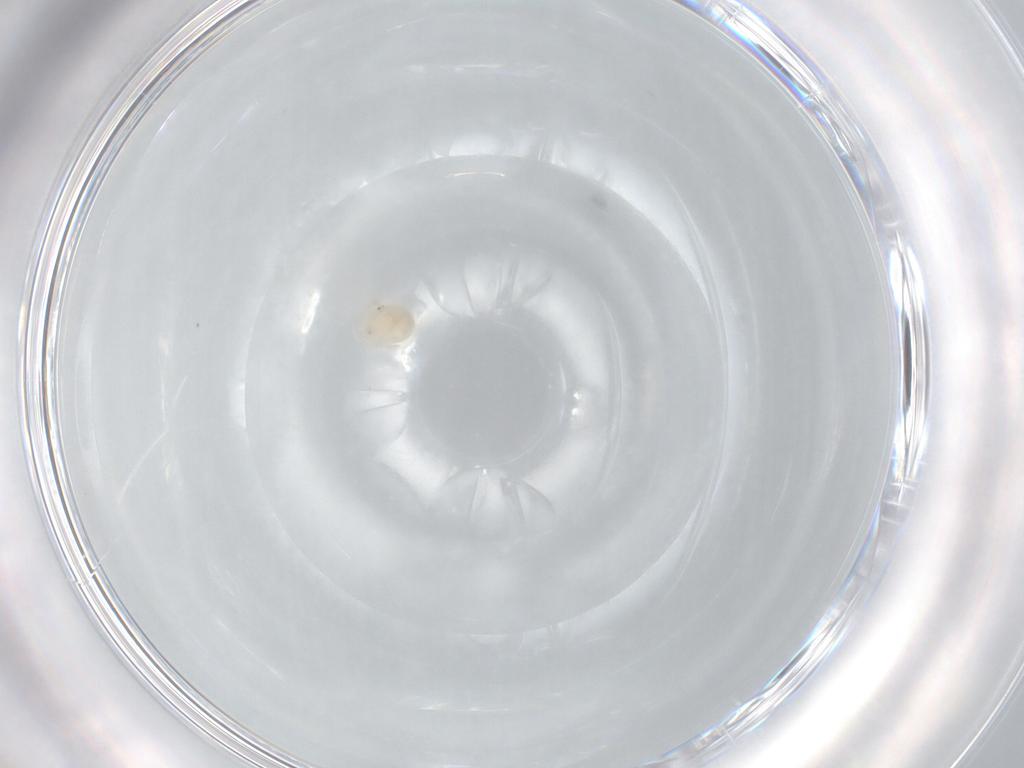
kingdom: Animalia
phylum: Arthropoda
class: Arachnida
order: Trombidiformes
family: Hydryphantidae
